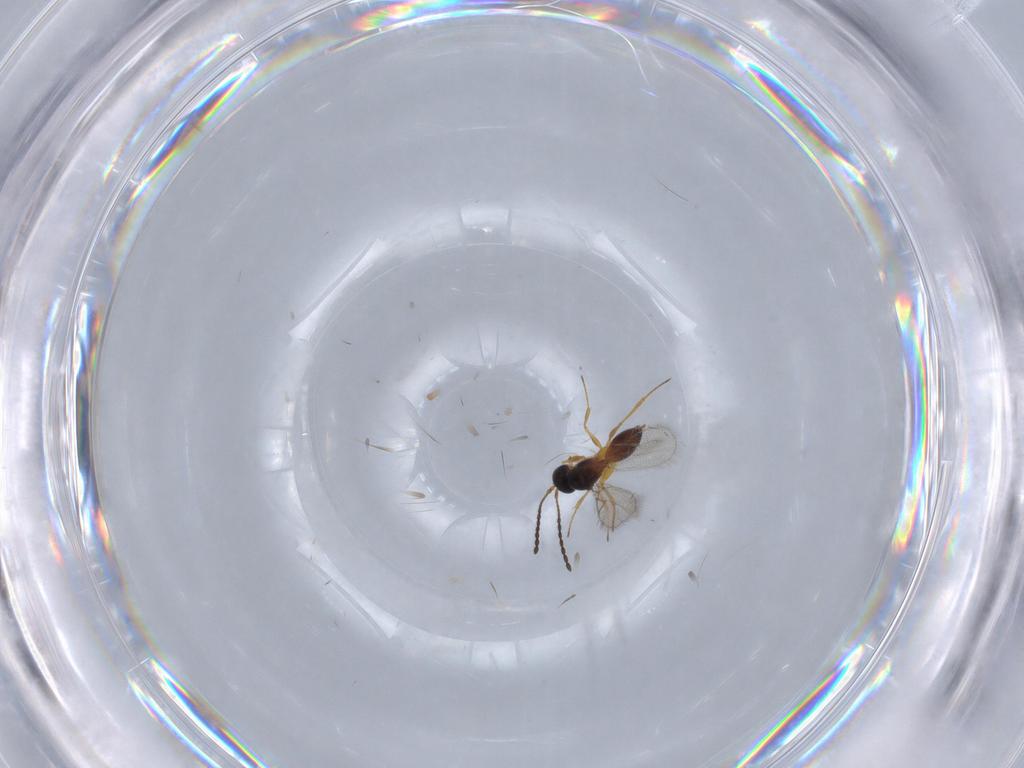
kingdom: Animalia
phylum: Arthropoda
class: Insecta
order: Hymenoptera
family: Figitidae
